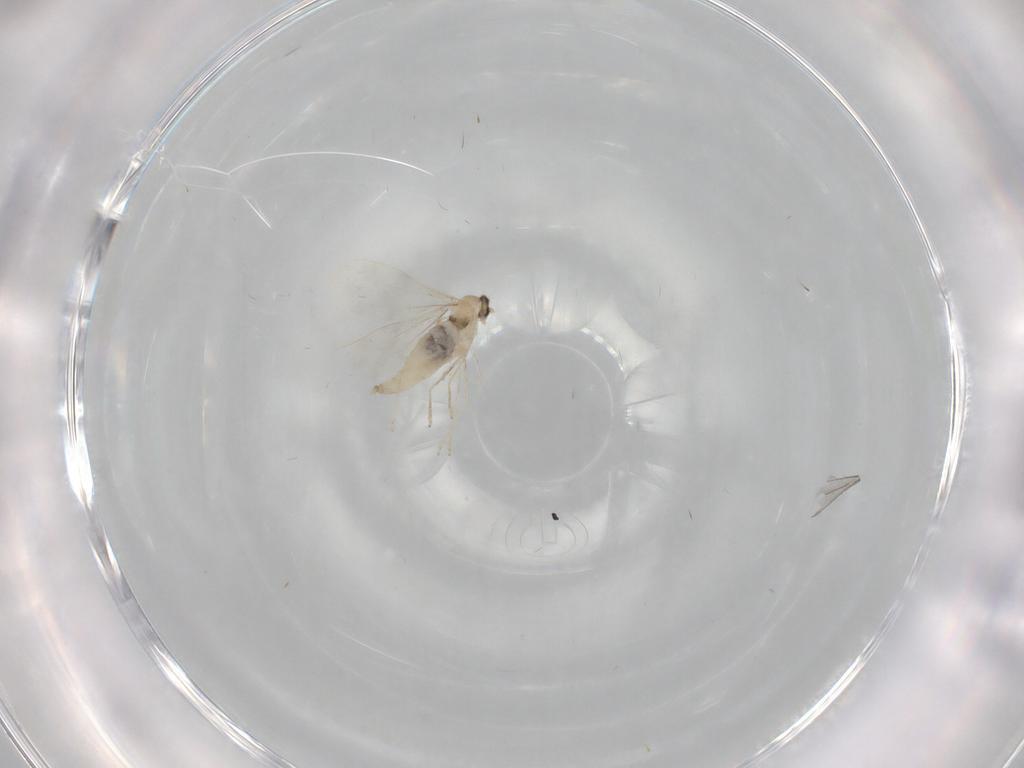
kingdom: Animalia
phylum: Arthropoda
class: Insecta
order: Diptera
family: Cecidomyiidae
